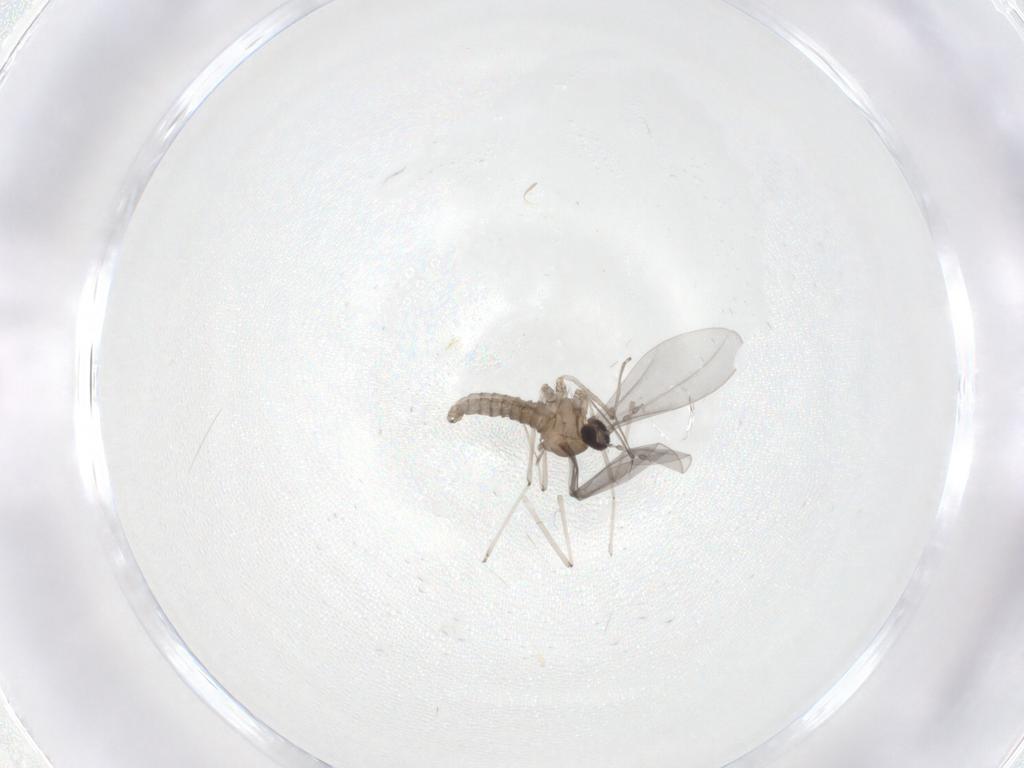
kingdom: Animalia
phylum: Arthropoda
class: Insecta
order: Diptera
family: Cecidomyiidae
